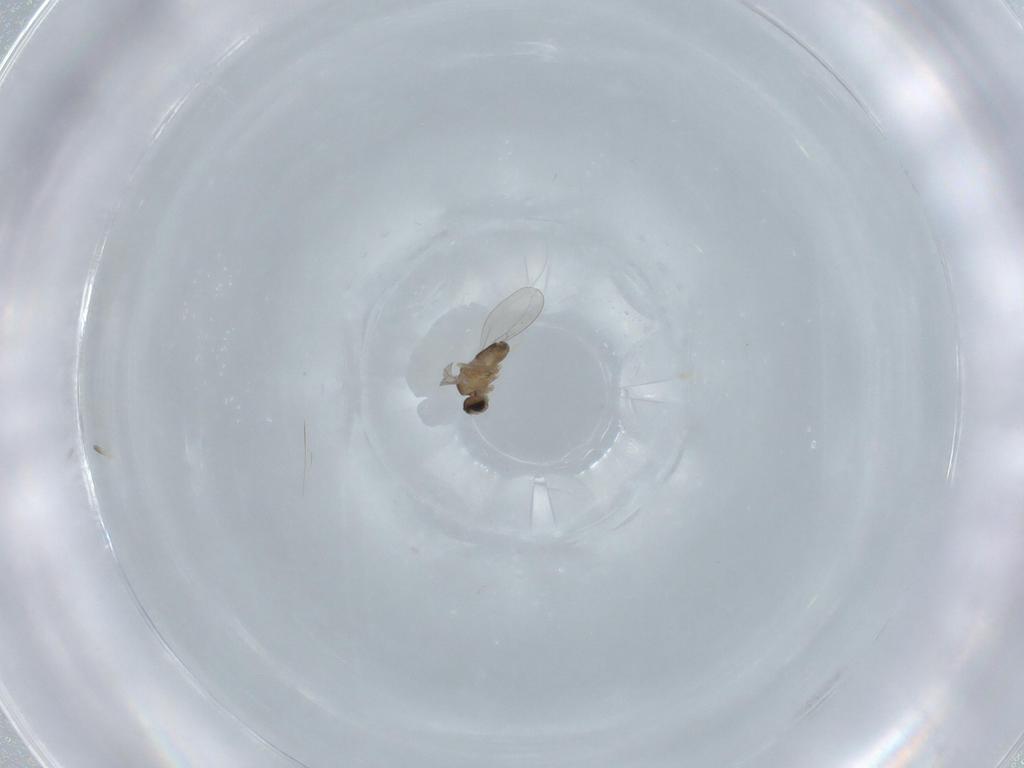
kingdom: Animalia
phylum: Arthropoda
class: Insecta
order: Diptera
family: Cecidomyiidae
